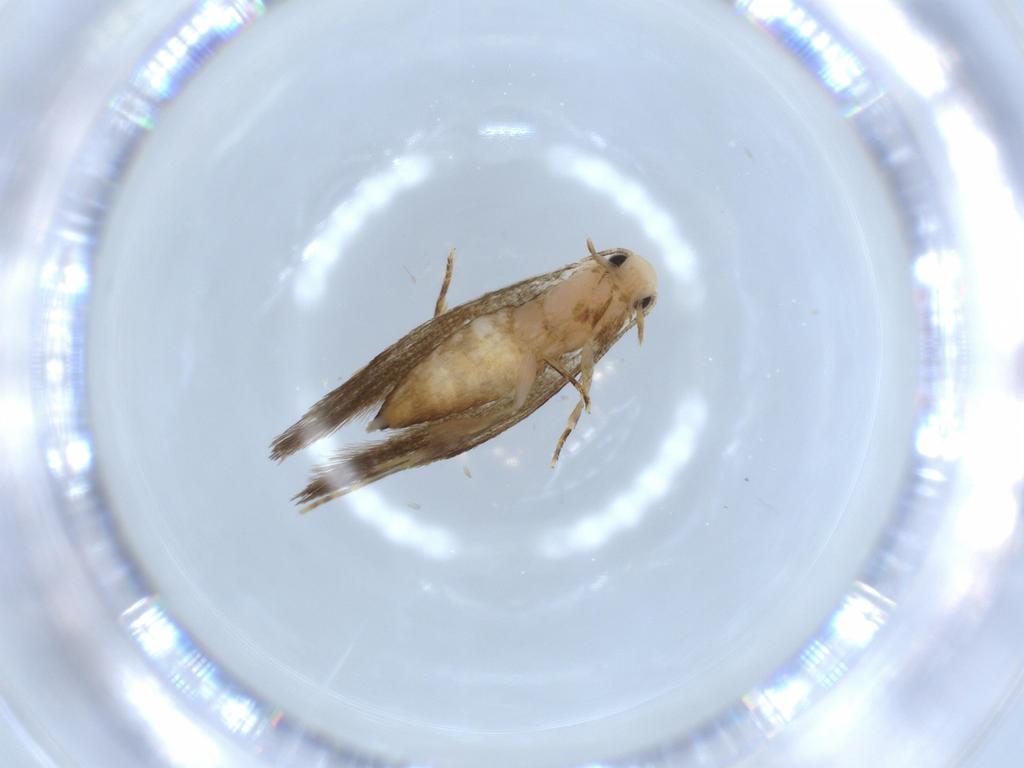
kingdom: Animalia
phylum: Arthropoda
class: Insecta
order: Lepidoptera
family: Tineidae
